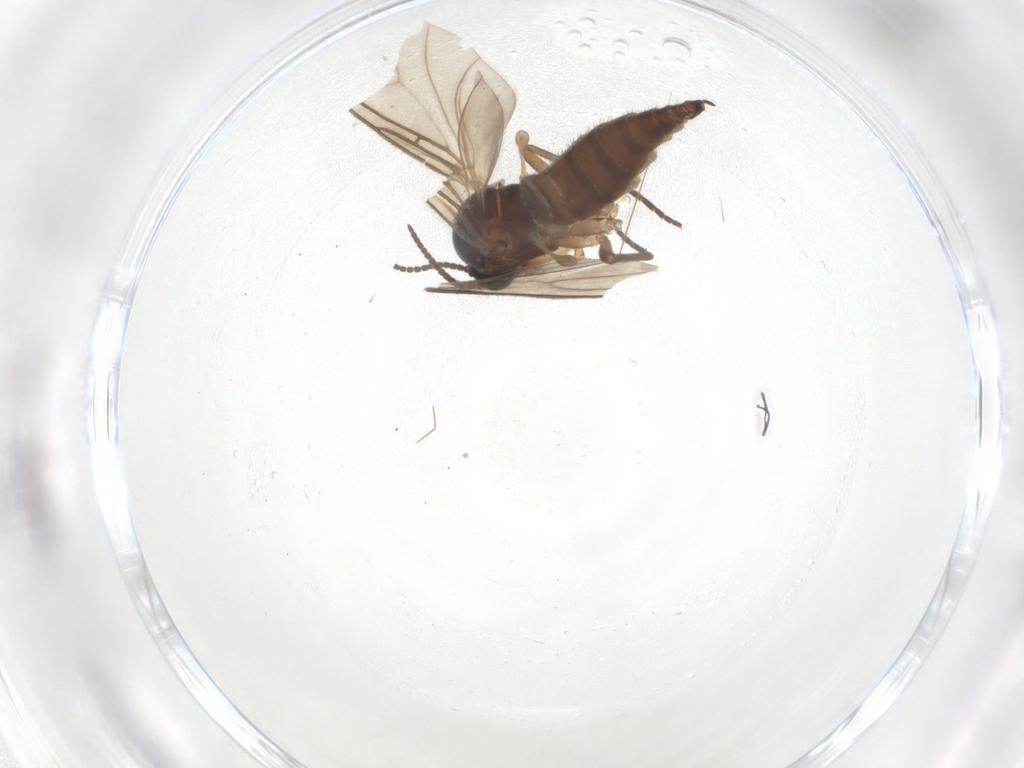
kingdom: Animalia
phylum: Arthropoda
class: Insecta
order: Diptera
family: Sciaridae
